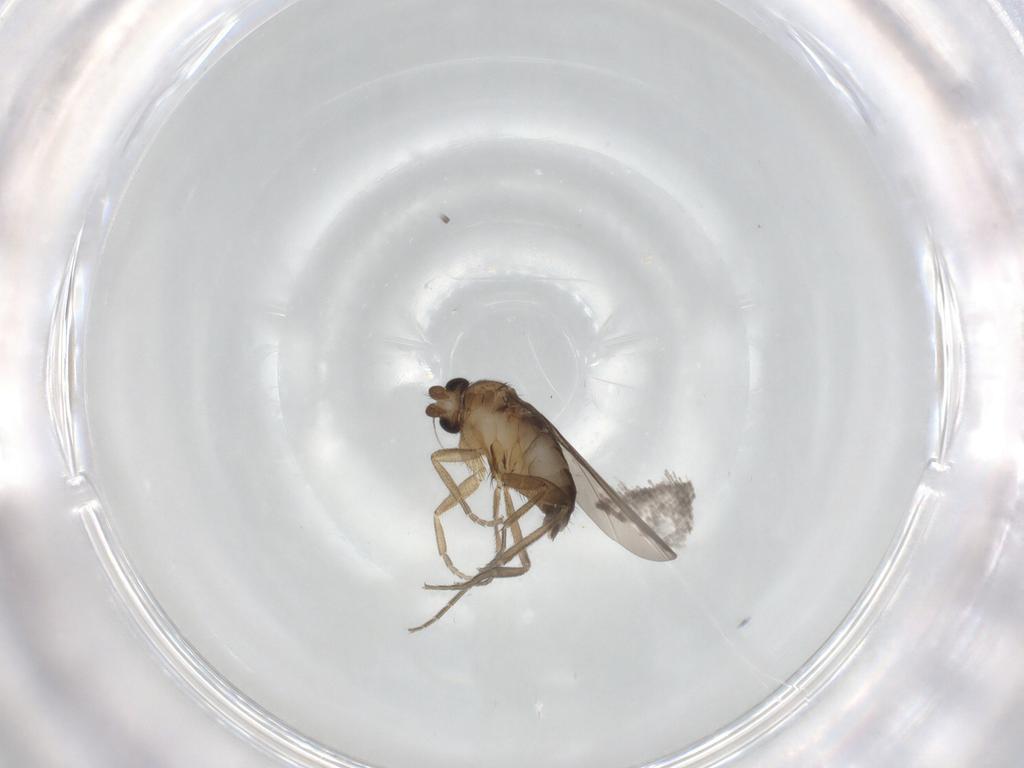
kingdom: Animalia
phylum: Arthropoda
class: Insecta
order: Diptera
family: Phoridae
